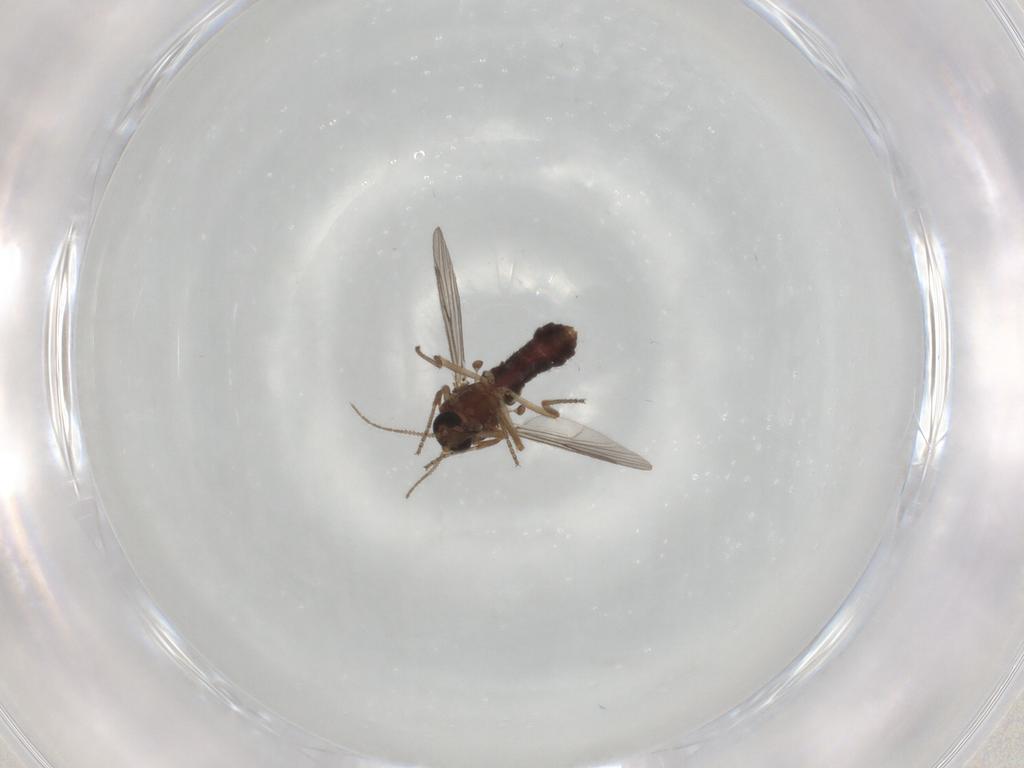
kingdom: Animalia
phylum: Arthropoda
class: Insecta
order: Diptera
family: Ceratopogonidae
